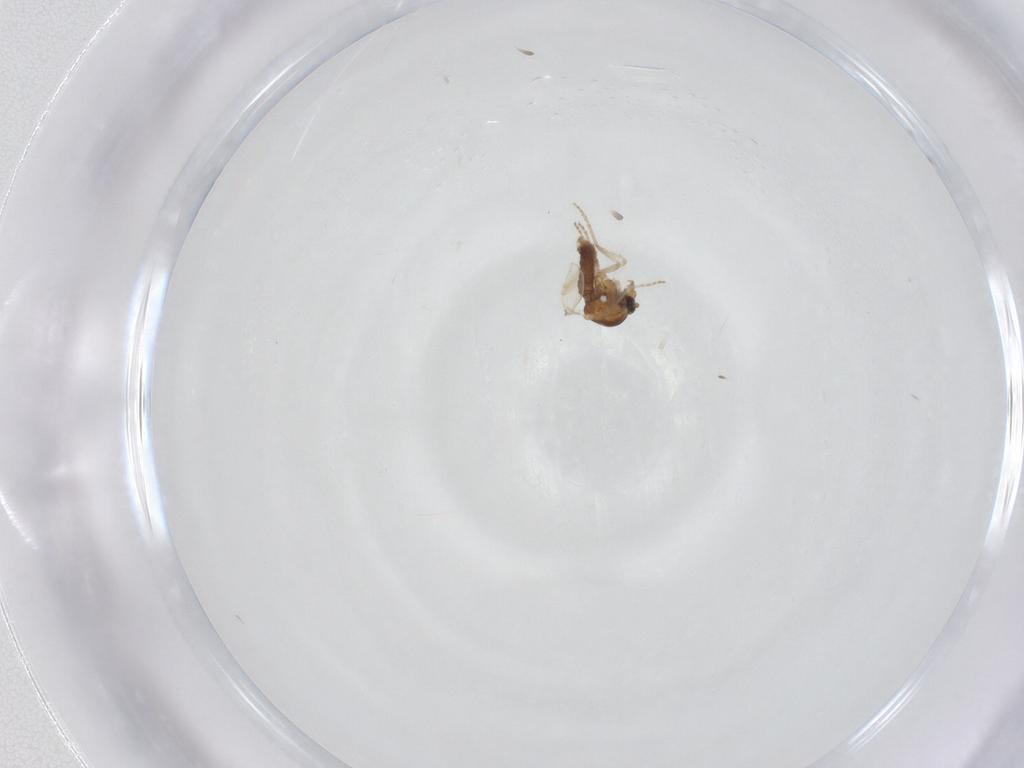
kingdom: Animalia
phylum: Arthropoda
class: Insecta
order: Diptera
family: Ceratopogonidae
